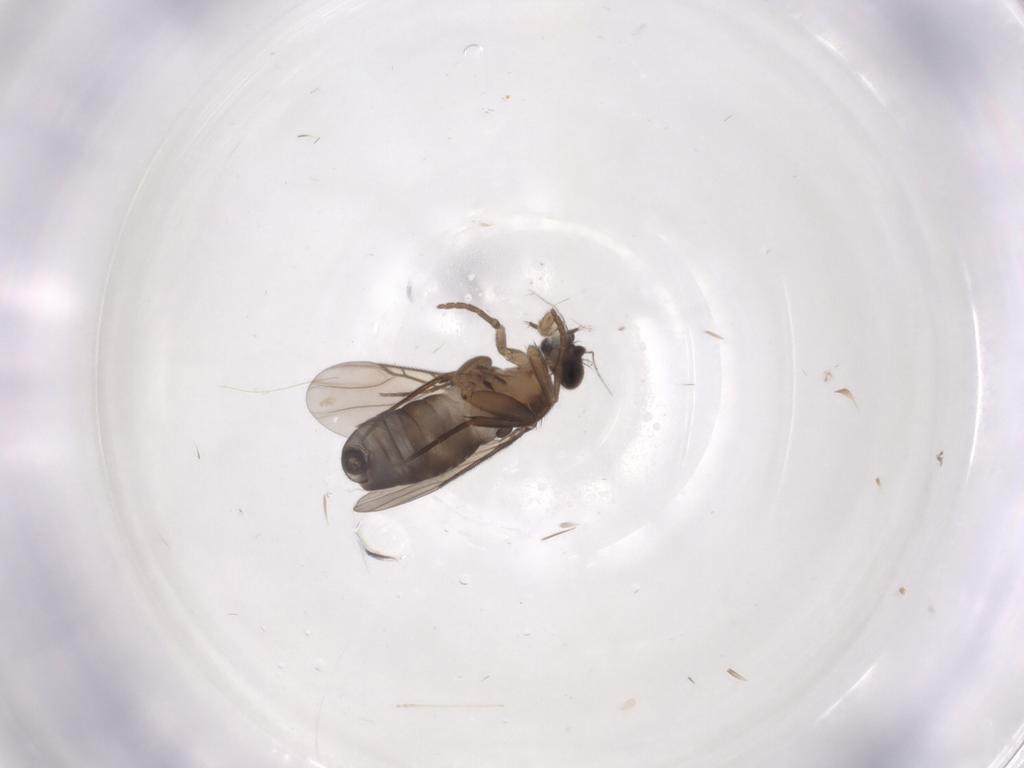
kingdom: Animalia
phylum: Arthropoda
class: Insecta
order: Diptera
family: Phoridae
